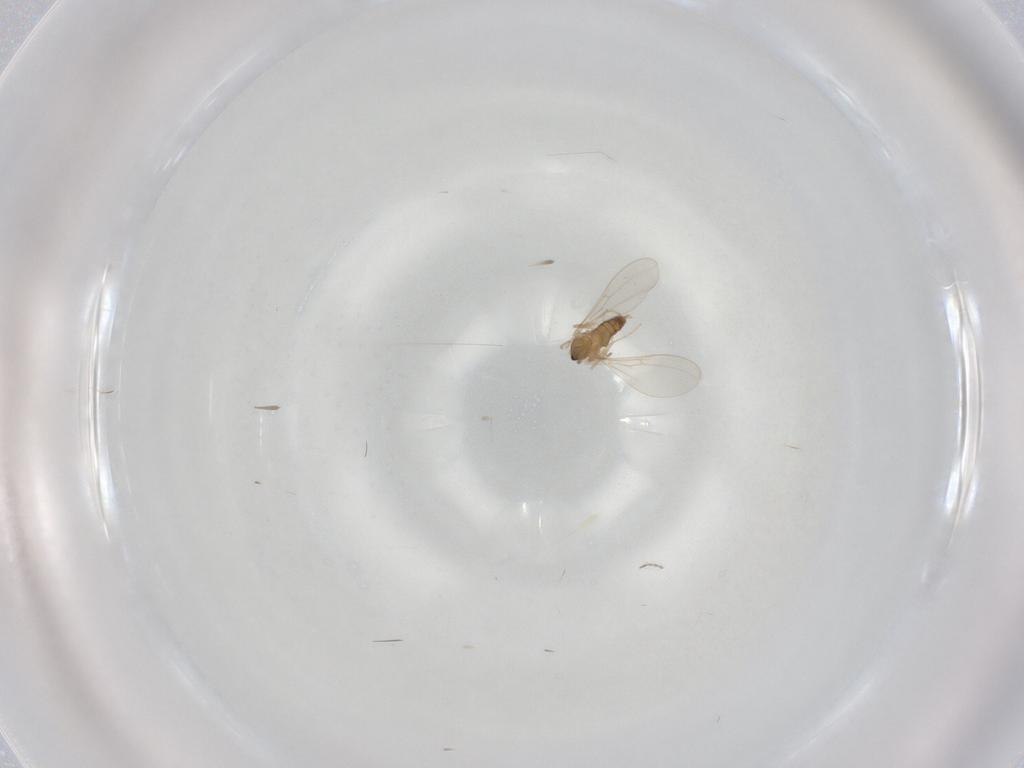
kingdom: Animalia
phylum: Arthropoda
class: Insecta
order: Diptera
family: Cecidomyiidae
